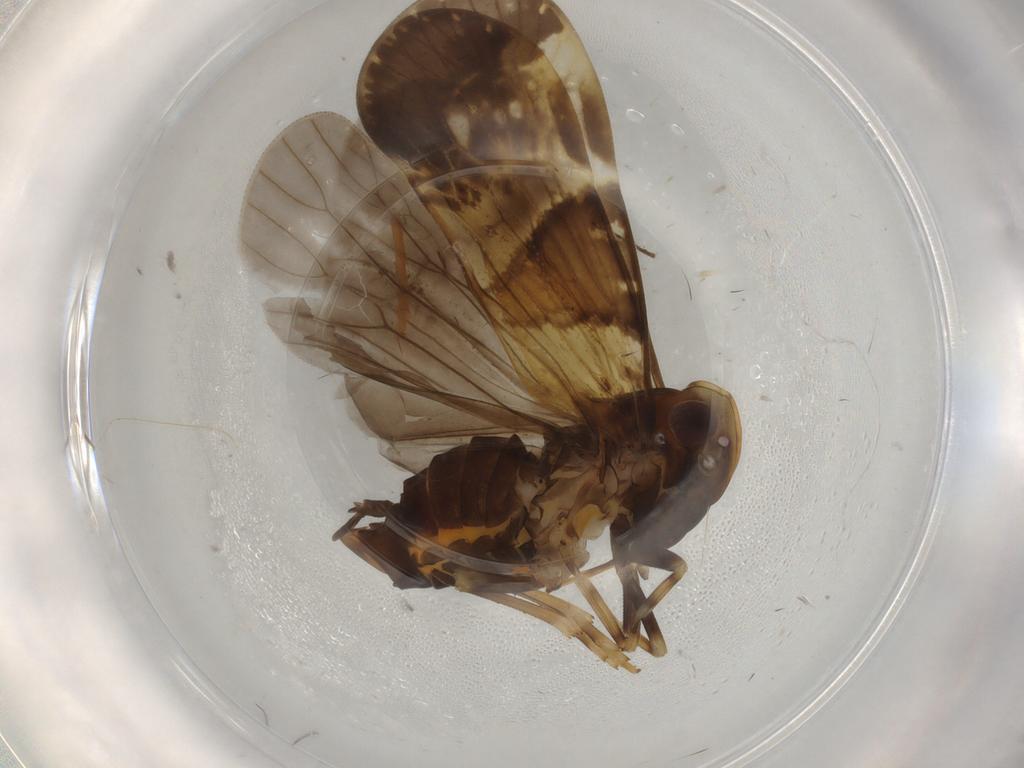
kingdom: Animalia
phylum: Arthropoda
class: Insecta
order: Hemiptera
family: Cixiidae
